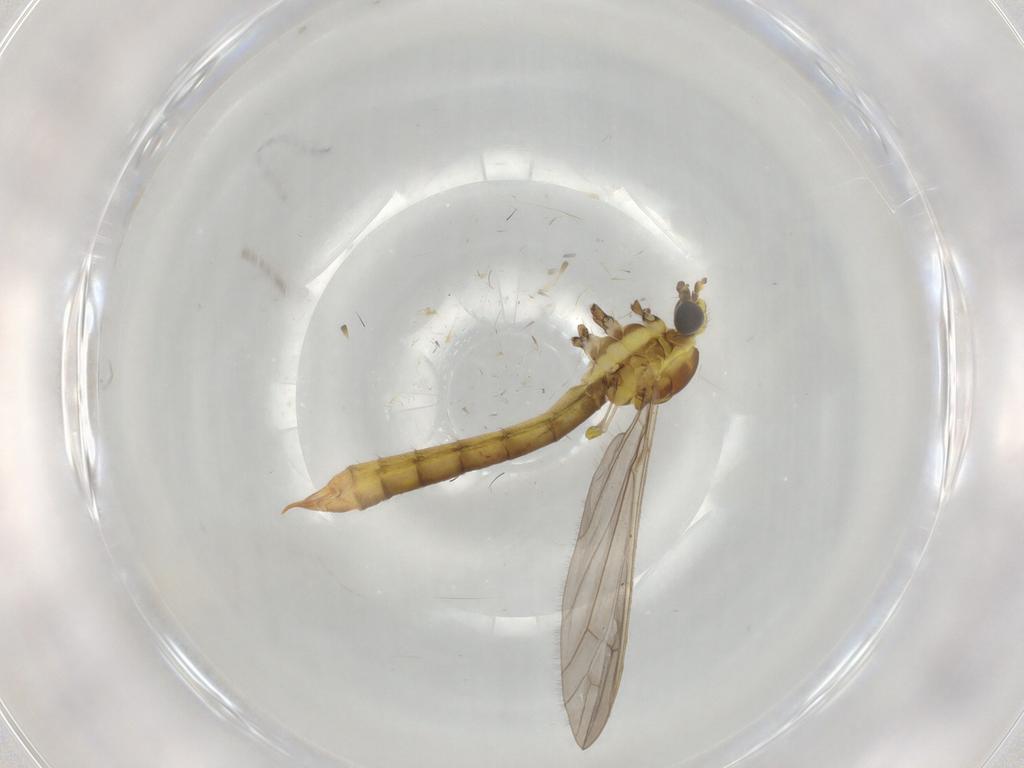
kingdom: Animalia
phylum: Arthropoda
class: Insecta
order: Diptera
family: Limoniidae
